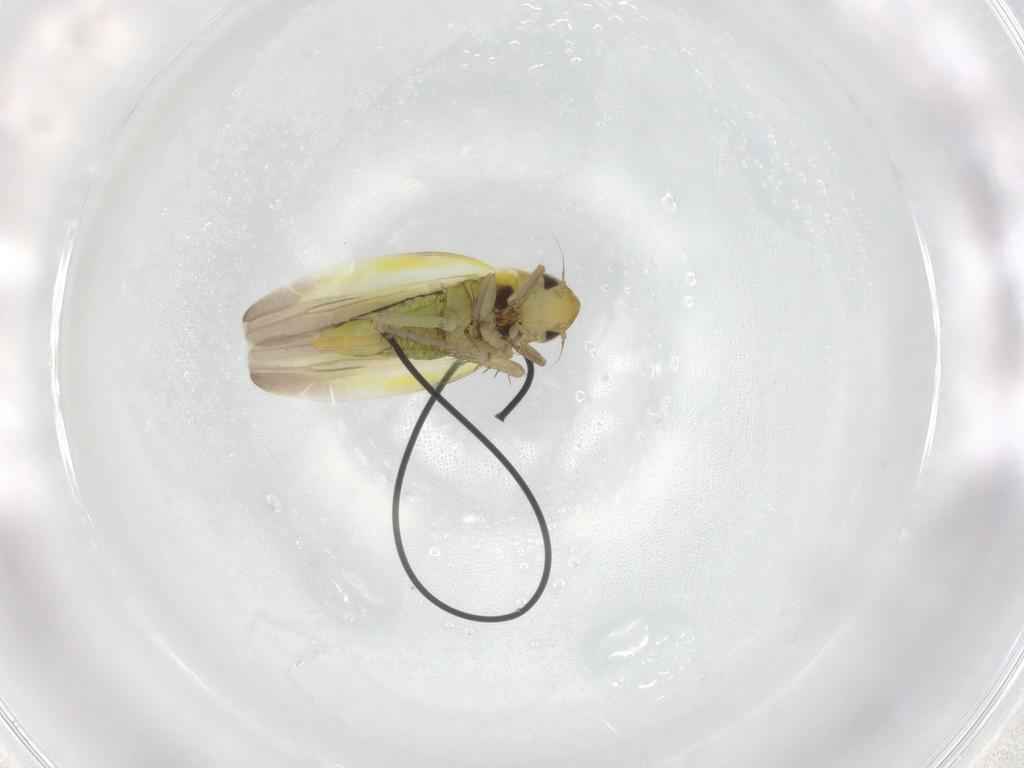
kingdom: Animalia
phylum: Arthropoda
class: Insecta
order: Hemiptera
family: Cicadellidae
